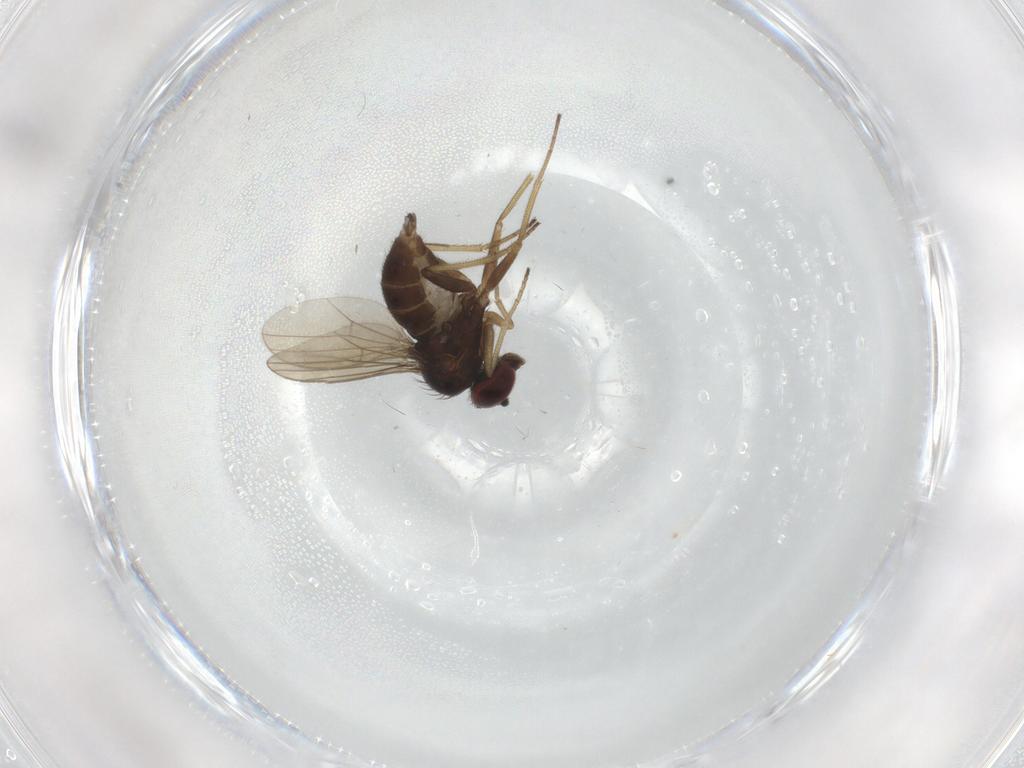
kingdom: Animalia
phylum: Arthropoda
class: Insecta
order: Diptera
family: Dolichopodidae
